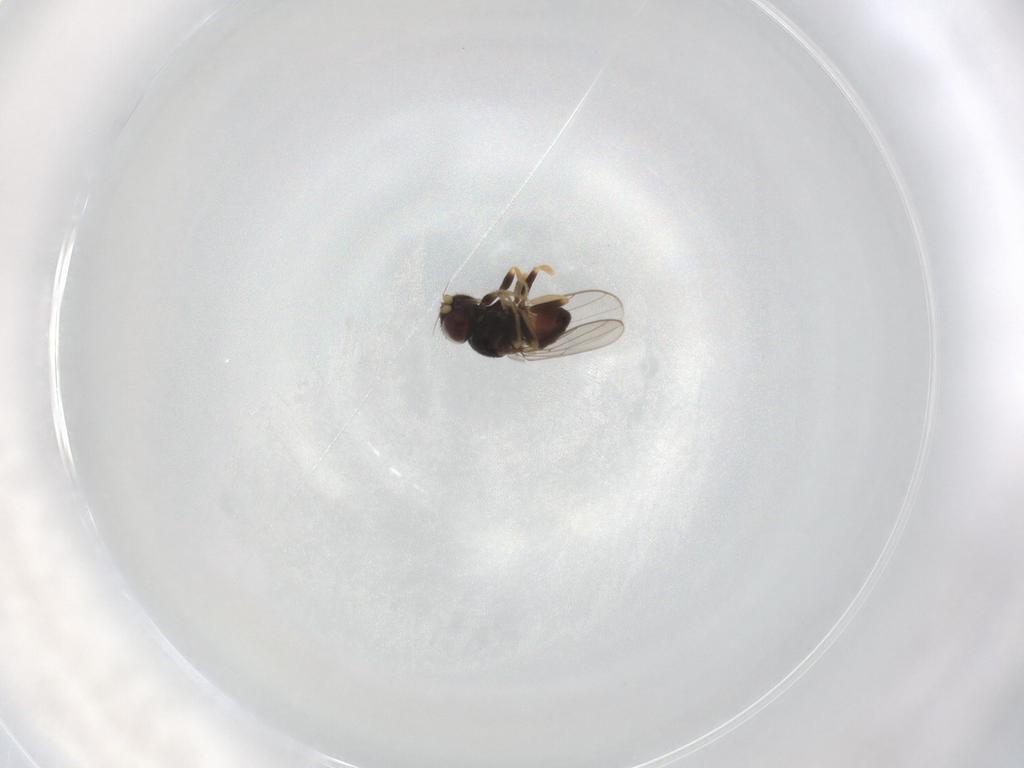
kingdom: Animalia
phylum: Arthropoda
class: Insecta
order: Diptera
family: Chloropidae
